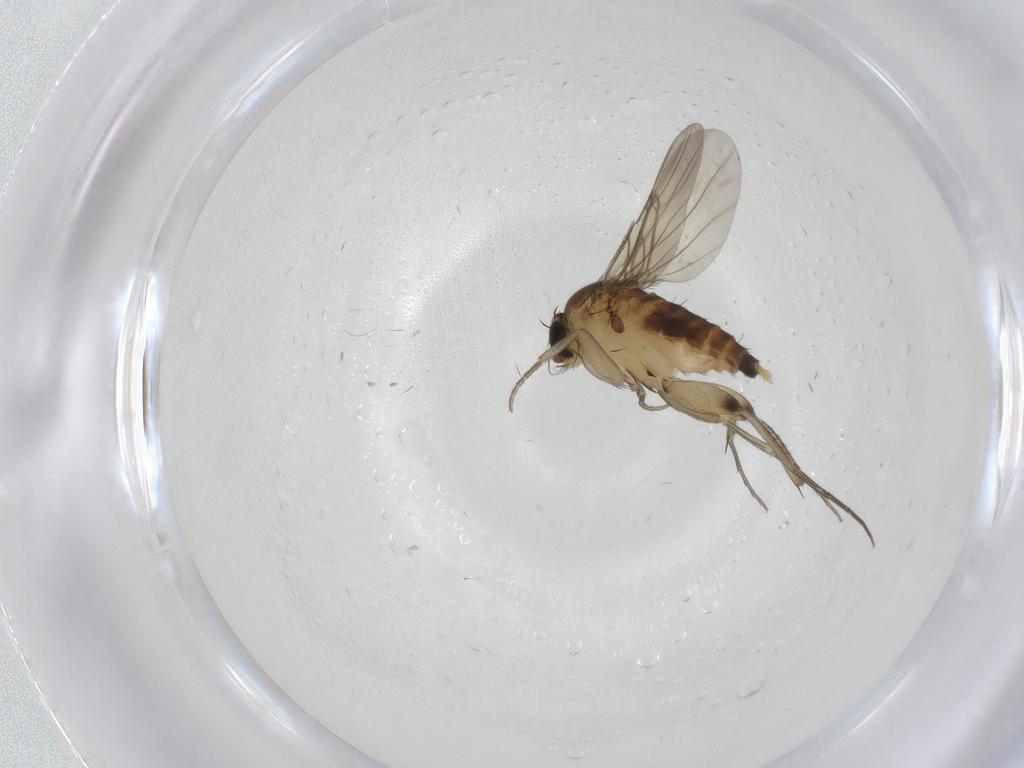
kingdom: Animalia
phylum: Arthropoda
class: Insecta
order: Diptera
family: Phoridae
